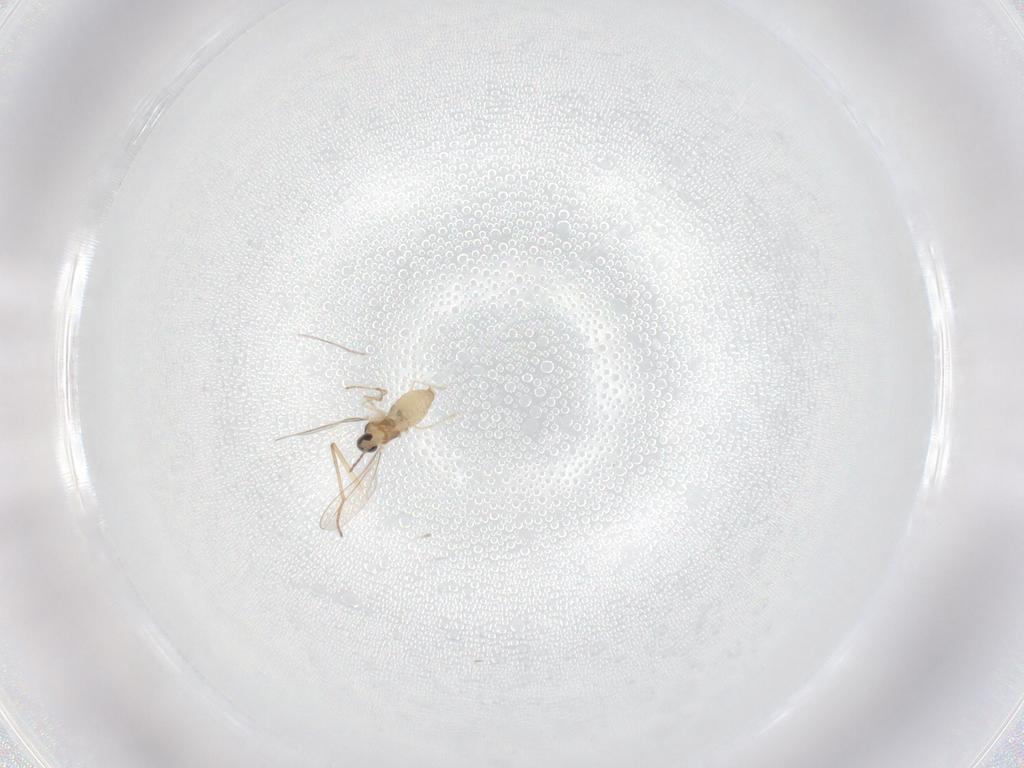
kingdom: Animalia
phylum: Arthropoda
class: Insecta
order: Diptera
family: Cecidomyiidae
